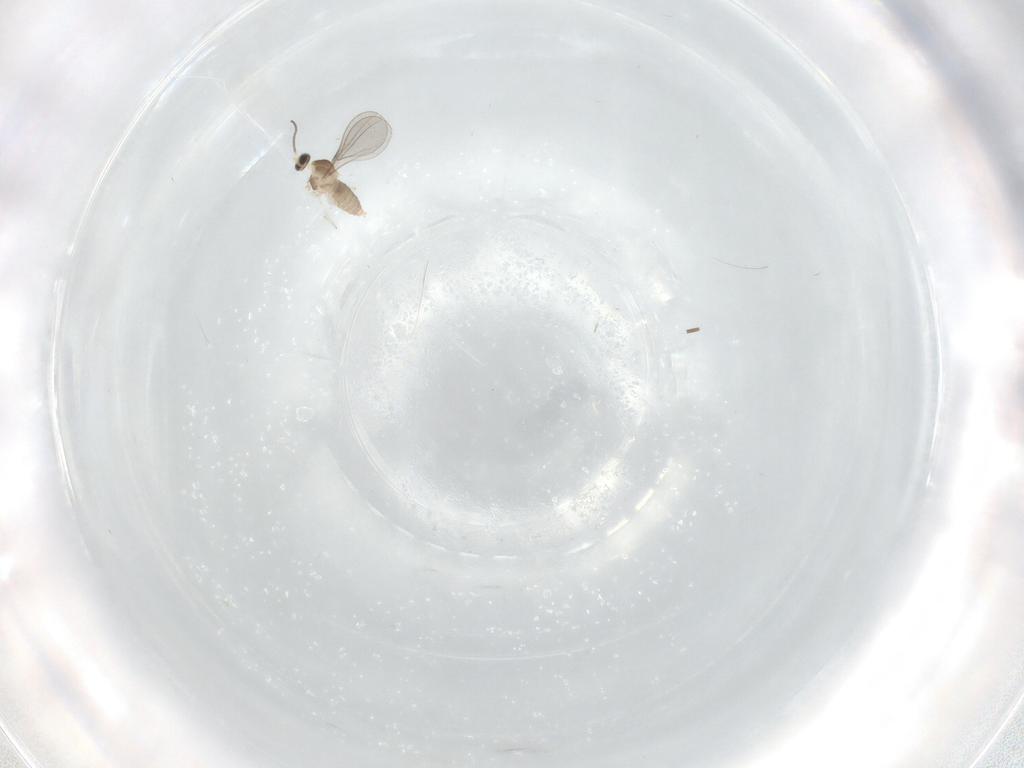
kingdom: Animalia
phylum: Arthropoda
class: Insecta
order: Diptera
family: Cecidomyiidae
